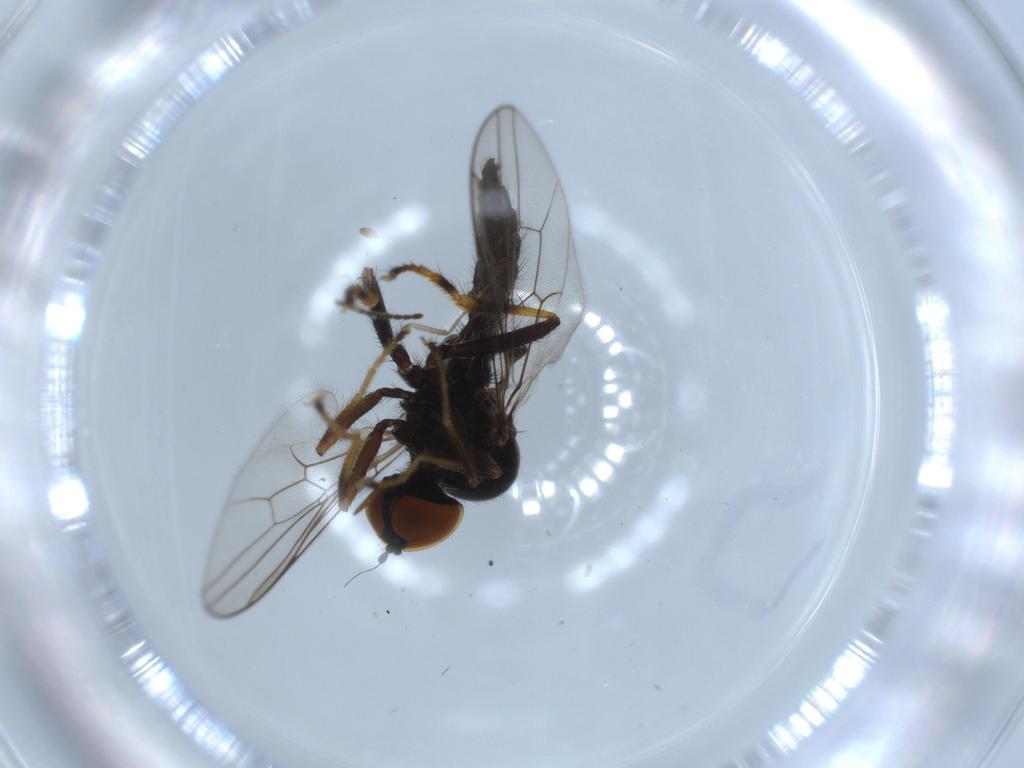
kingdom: Animalia
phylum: Arthropoda
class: Insecta
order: Diptera
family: Hybotidae
